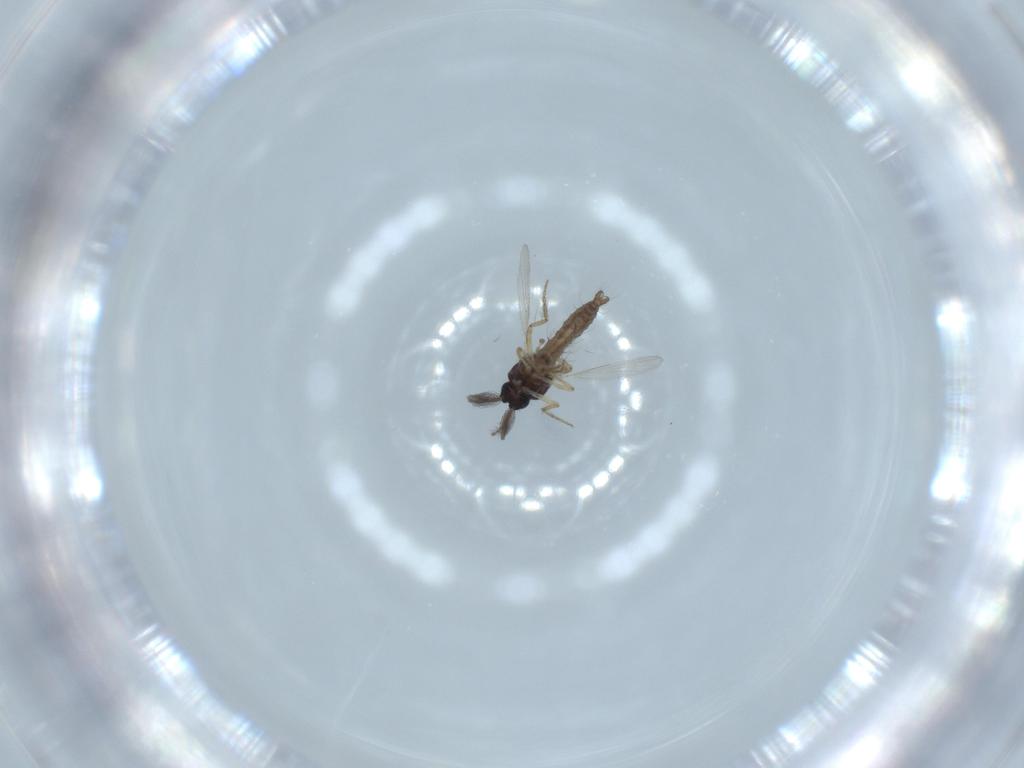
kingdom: Animalia
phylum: Arthropoda
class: Insecta
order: Diptera
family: Ceratopogonidae
